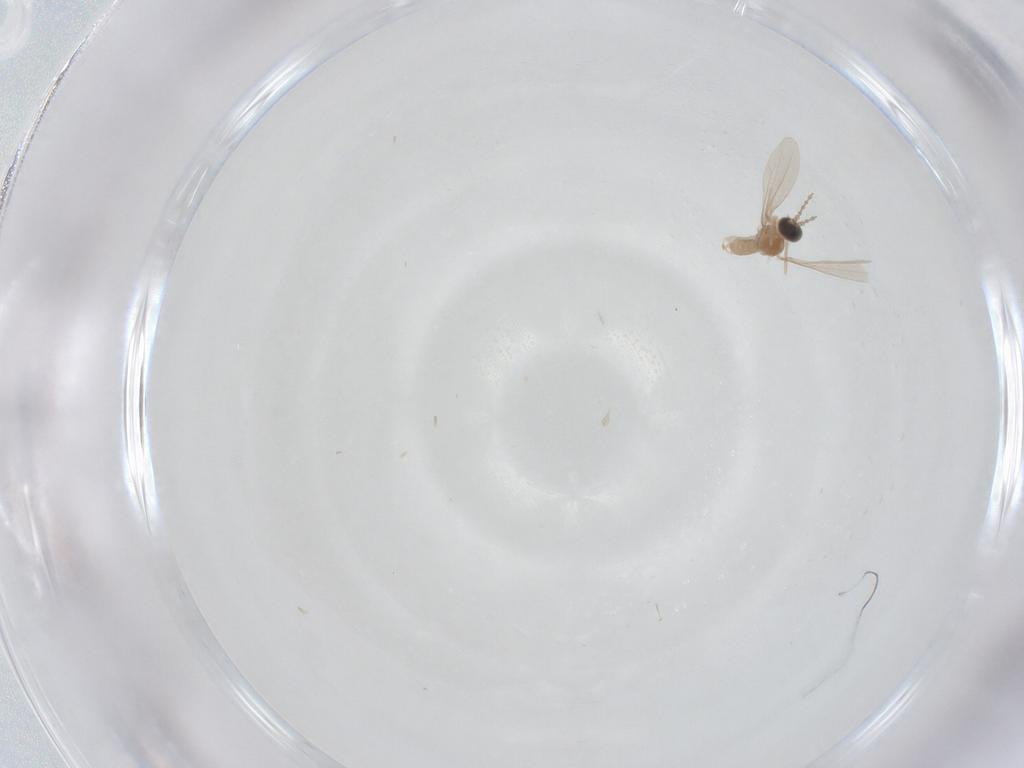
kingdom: Animalia
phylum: Arthropoda
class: Insecta
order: Diptera
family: Cecidomyiidae
